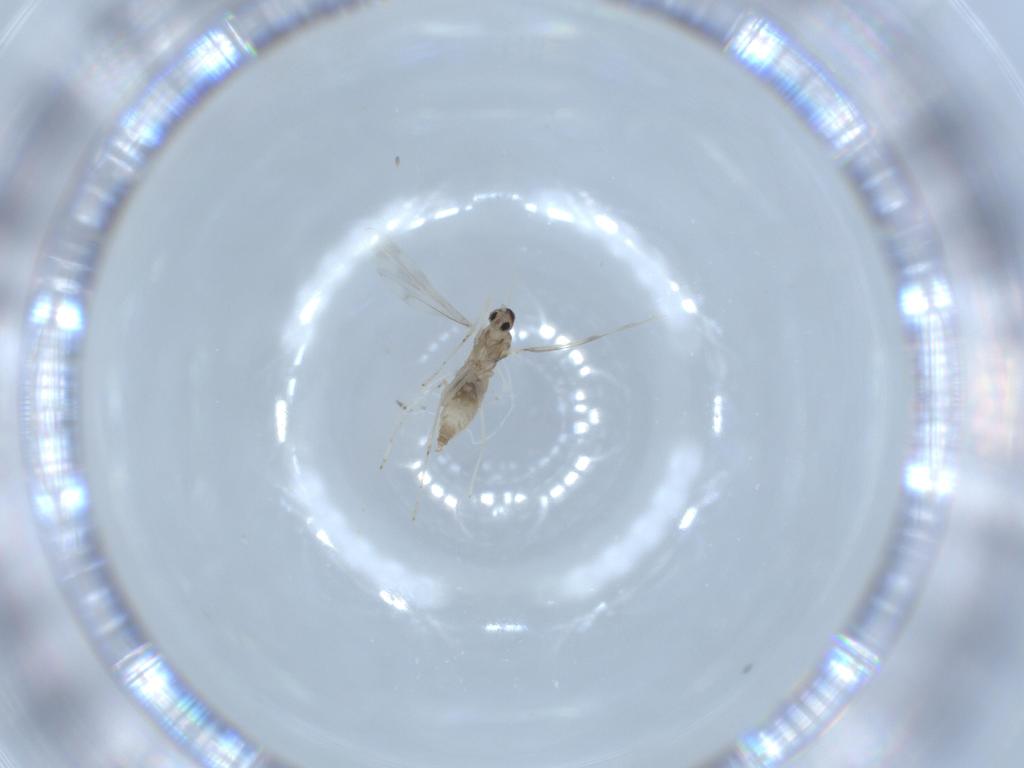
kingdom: Animalia
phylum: Arthropoda
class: Insecta
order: Diptera
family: Cecidomyiidae
